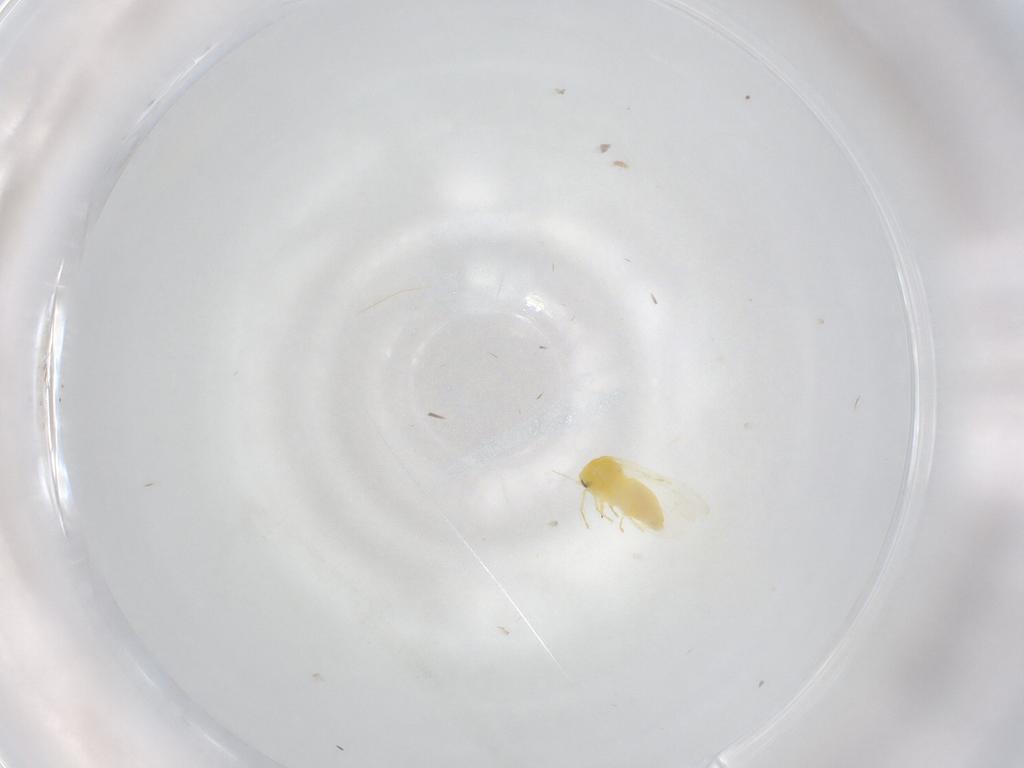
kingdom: Animalia
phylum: Arthropoda
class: Insecta
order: Hemiptera
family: Aleyrodidae
